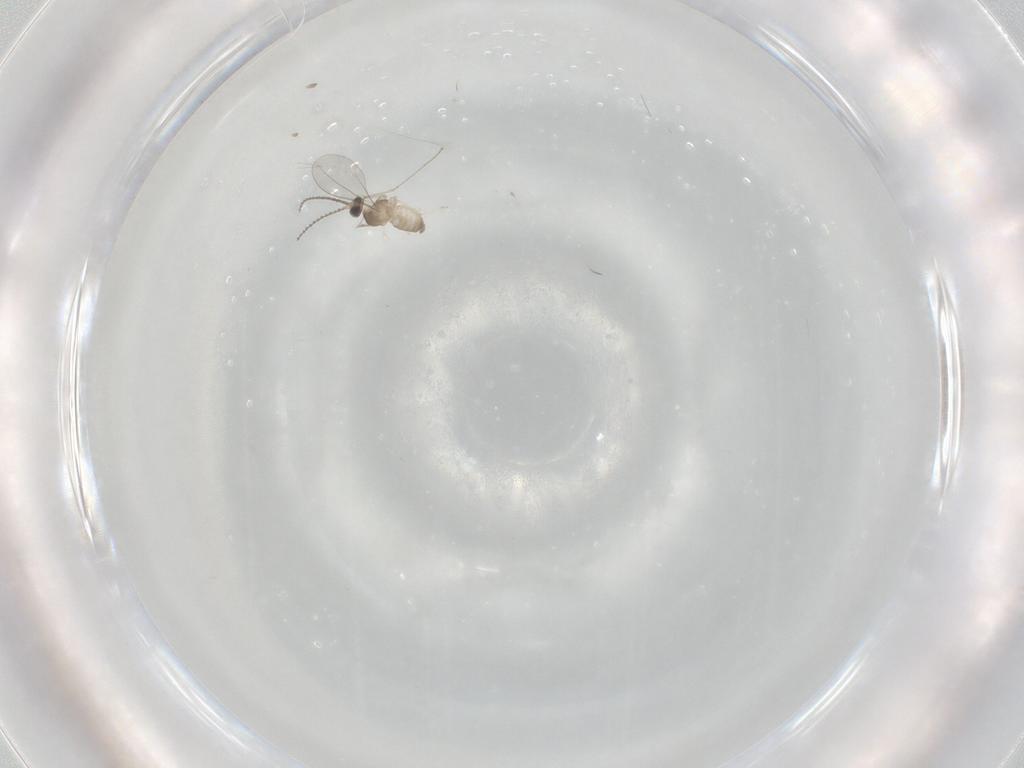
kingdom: Animalia
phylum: Arthropoda
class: Insecta
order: Diptera
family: Cecidomyiidae
